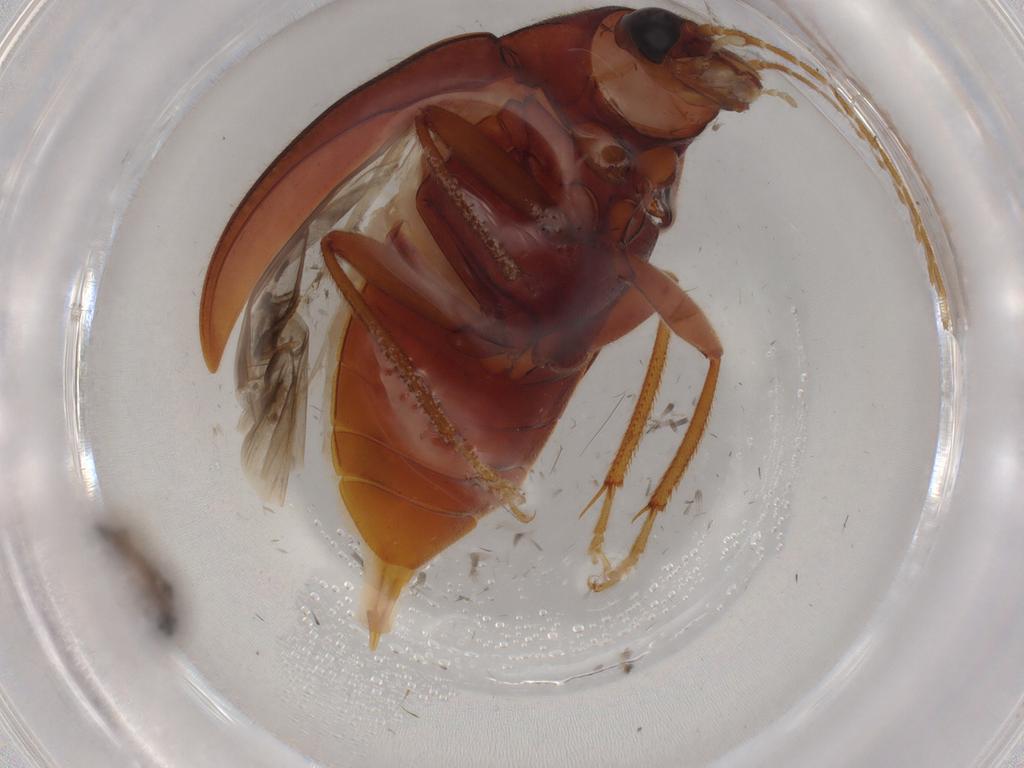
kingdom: Animalia
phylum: Arthropoda
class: Insecta
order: Coleoptera
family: Ptilodactylidae
